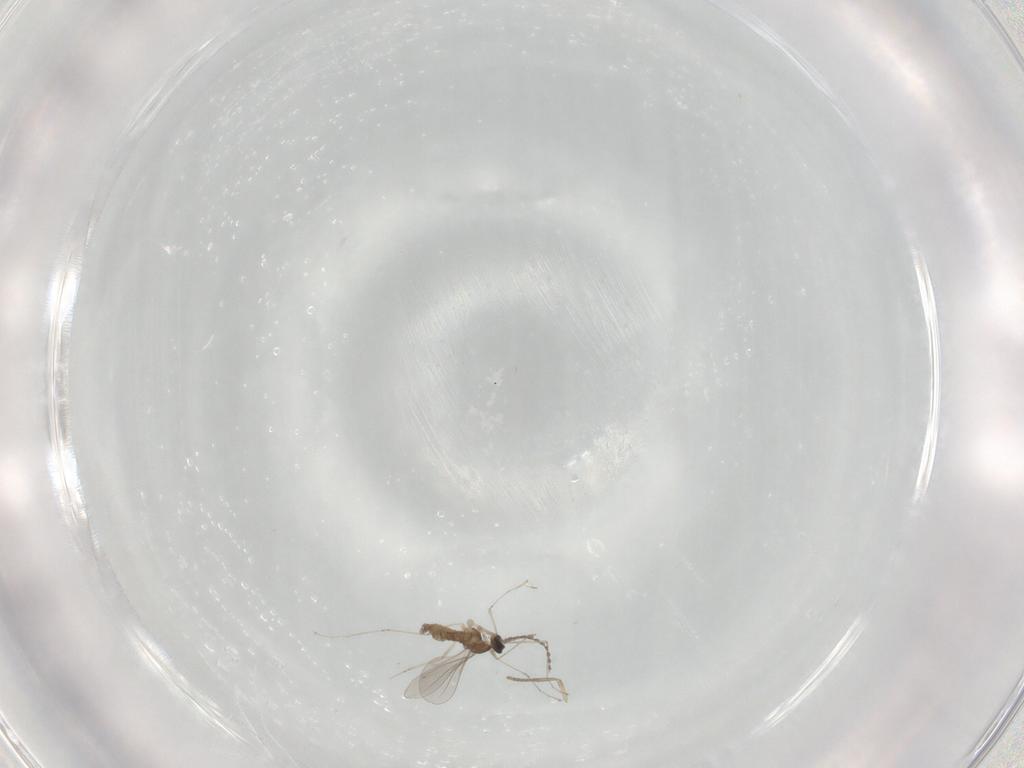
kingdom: Animalia
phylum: Arthropoda
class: Insecta
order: Diptera
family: Psychodidae
